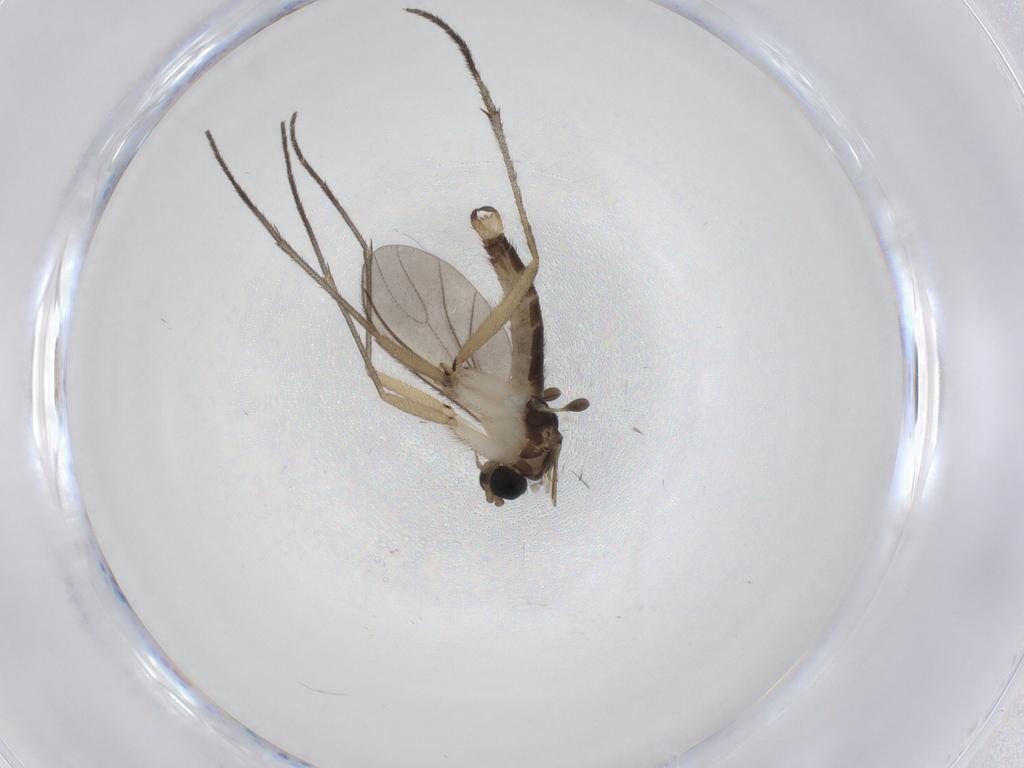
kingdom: Animalia
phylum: Arthropoda
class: Insecta
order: Diptera
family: Sciaridae
